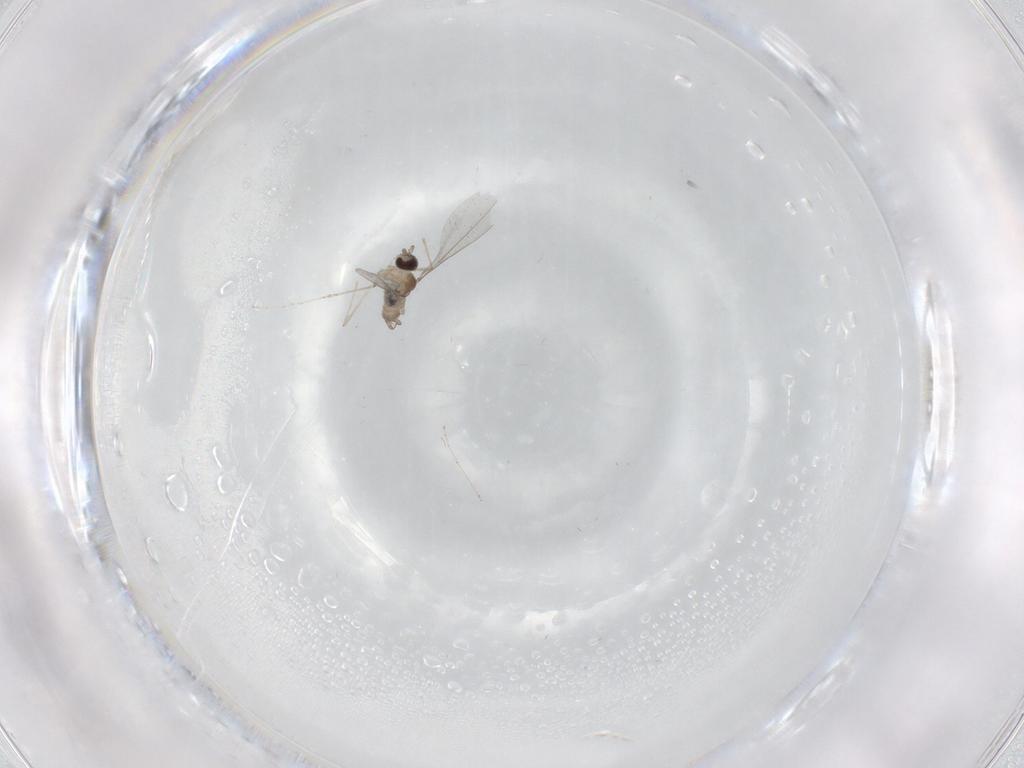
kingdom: Animalia
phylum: Arthropoda
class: Insecta
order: Diptera
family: Cecidomyiidae
